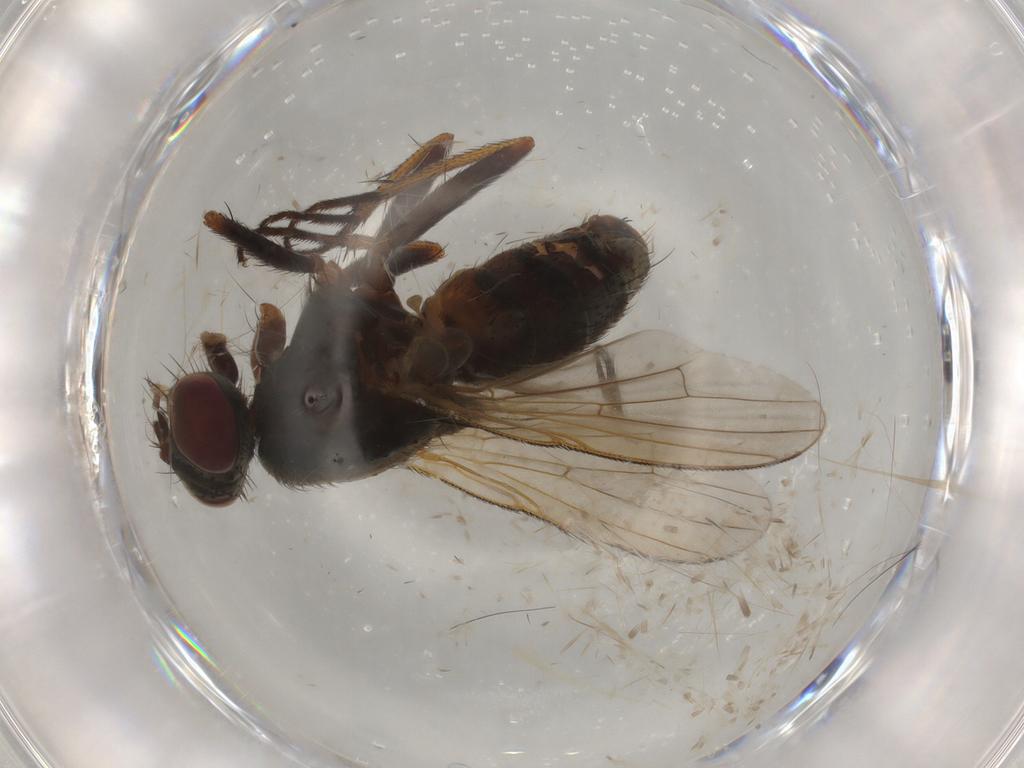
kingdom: Animalia
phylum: Arthropoda
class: Insecta
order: Diptera
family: Muscidae
